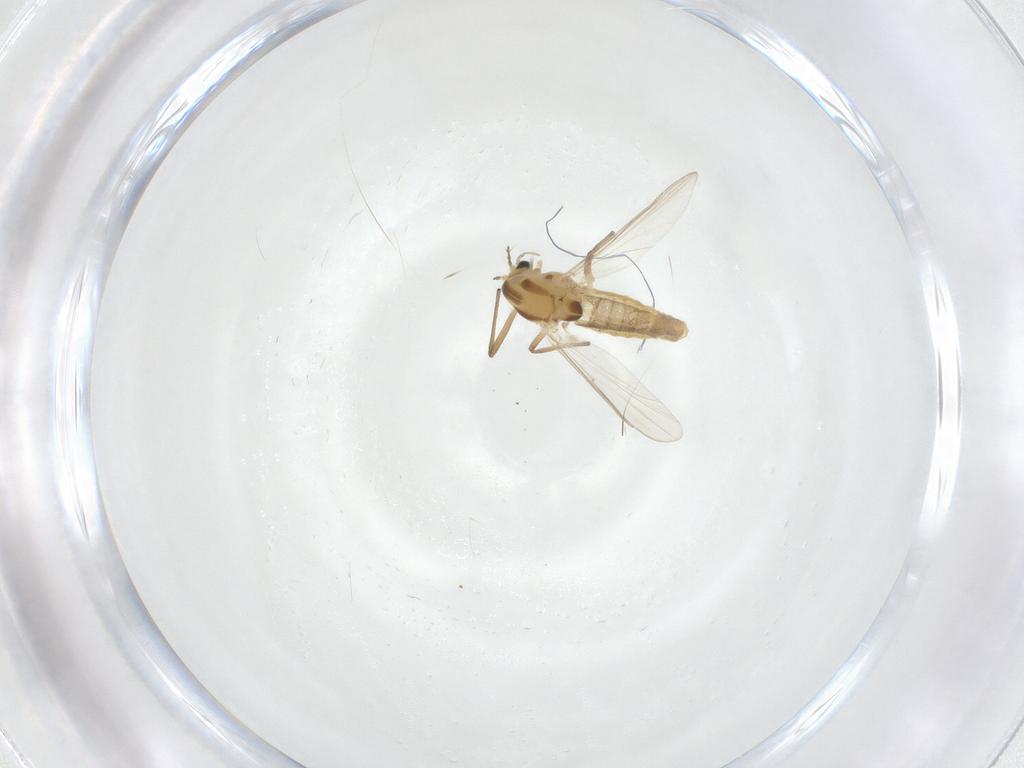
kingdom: Animalia
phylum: Arthropoda
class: Insecta
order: Diptera
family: Chironomidae
